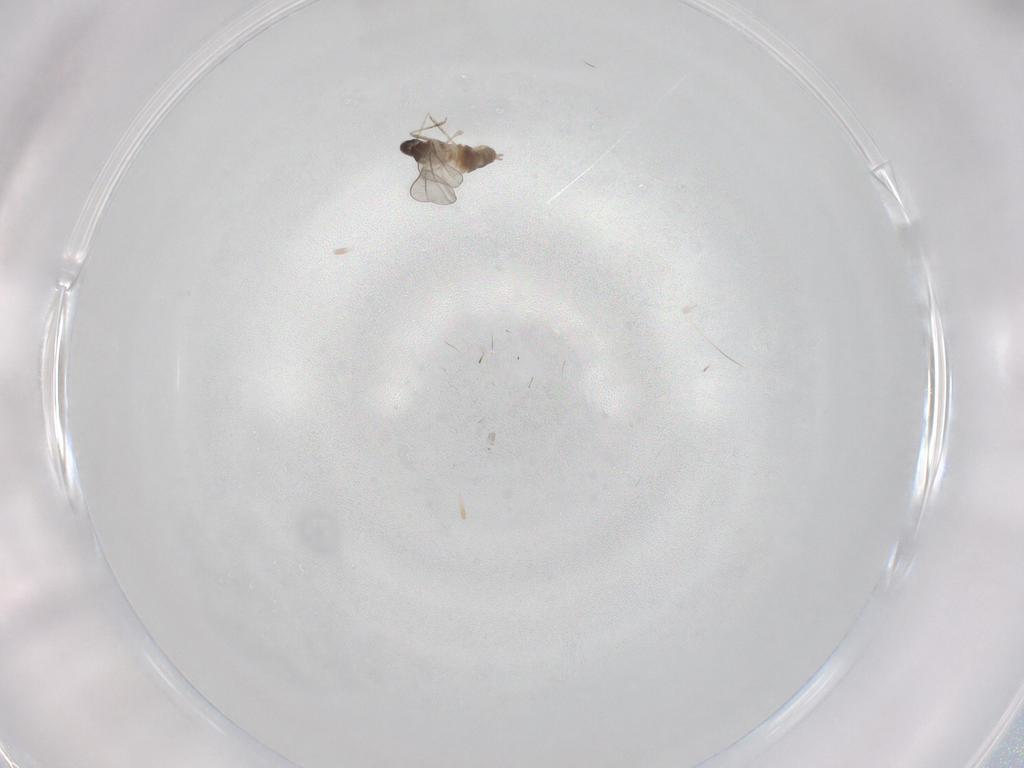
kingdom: Animalia
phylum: Arthropoda
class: Insecta
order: Diptera
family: Cecidomyiidae
